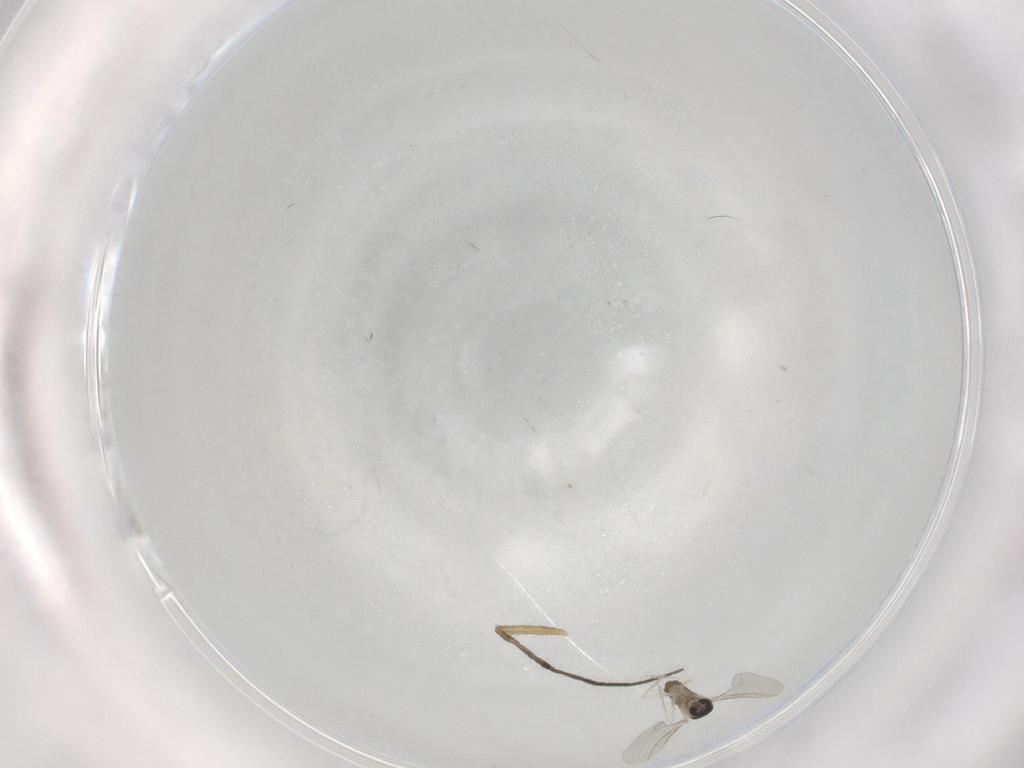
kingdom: Animalia
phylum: Arthropoda
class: Insecta
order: Diptera
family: Cecidomyiidae
